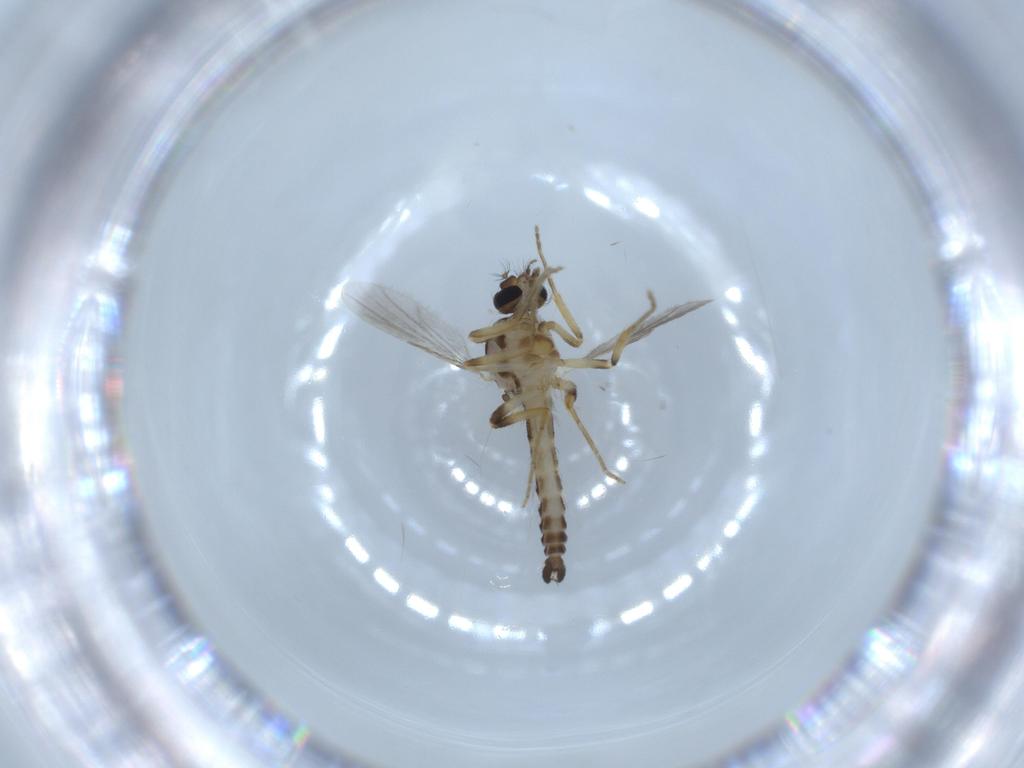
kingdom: Animalia
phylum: Arthropoda
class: Insecta
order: Diptera
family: Ceratopogonidae
